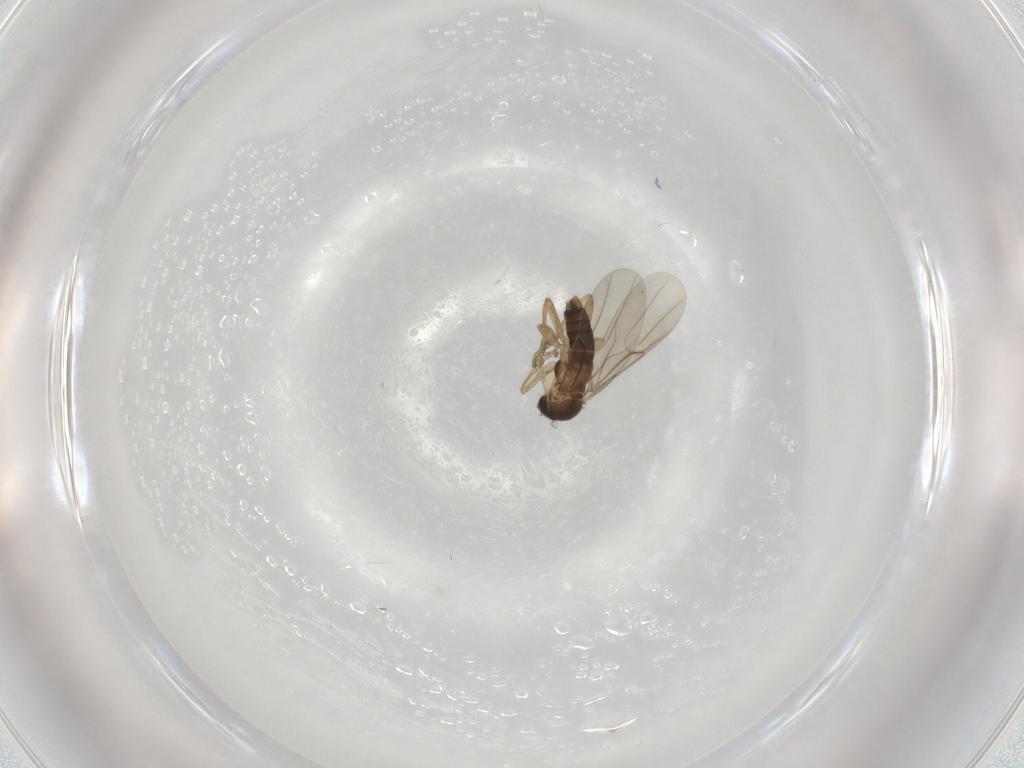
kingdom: Animalia
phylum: Arthropoda
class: Insecta
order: Diptera
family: Phoridae
